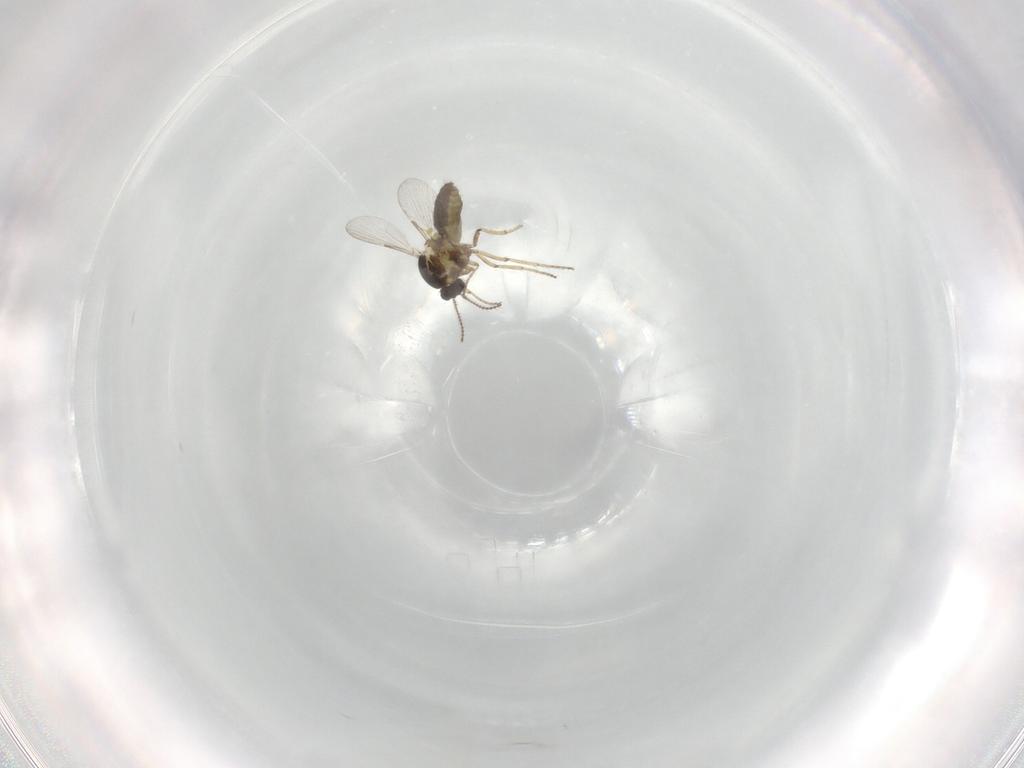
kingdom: Animalia
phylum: Arthropoda
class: Insecta
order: Diptera
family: Ceratopogonidae
